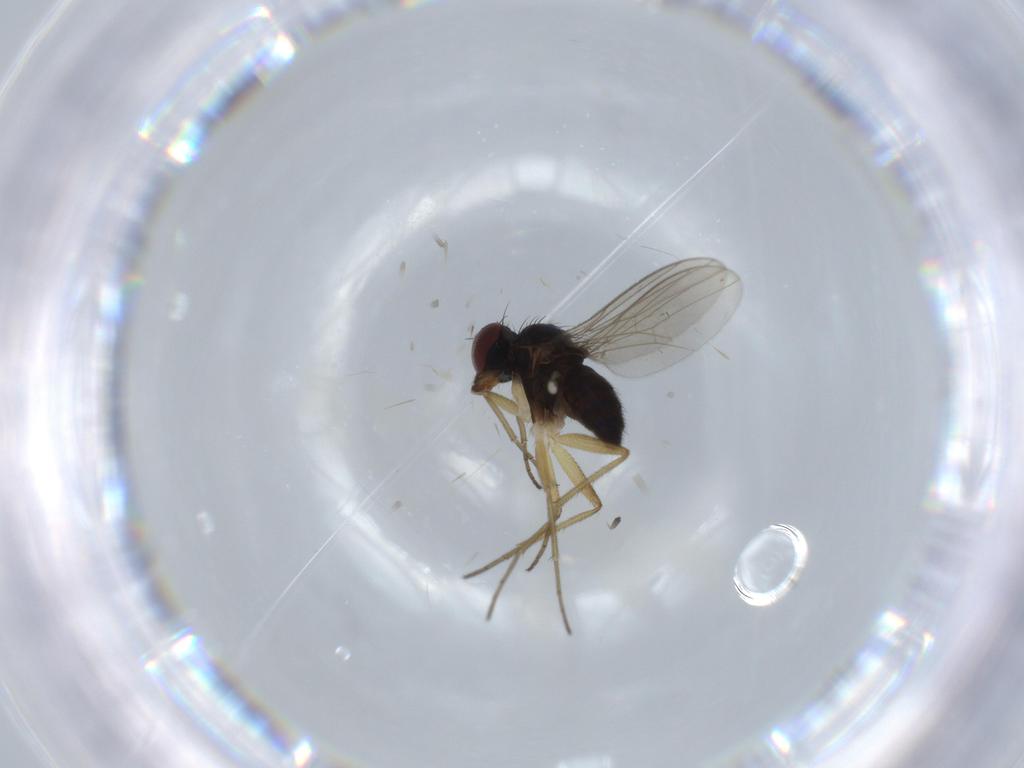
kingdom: Animalia
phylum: Arthropoda
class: Insecta
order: Diptera
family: Dolichopodidae
